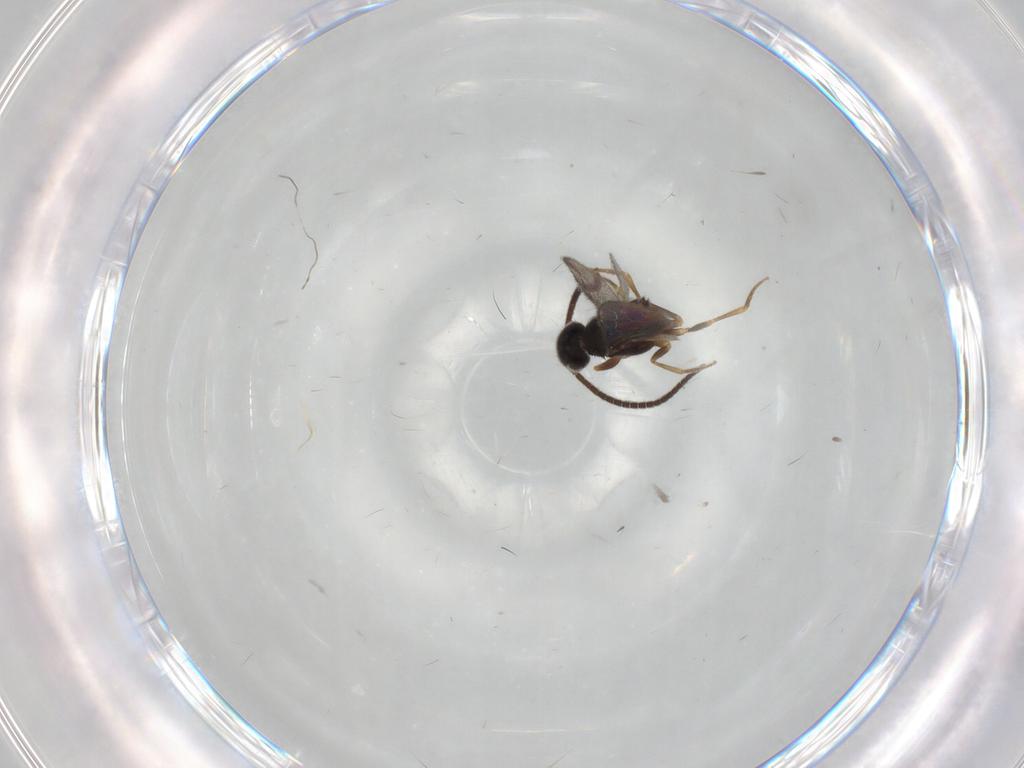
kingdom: Animalia
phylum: Arthropoda
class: Insecta
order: Hymenoptera
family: Sclerogibbidae
